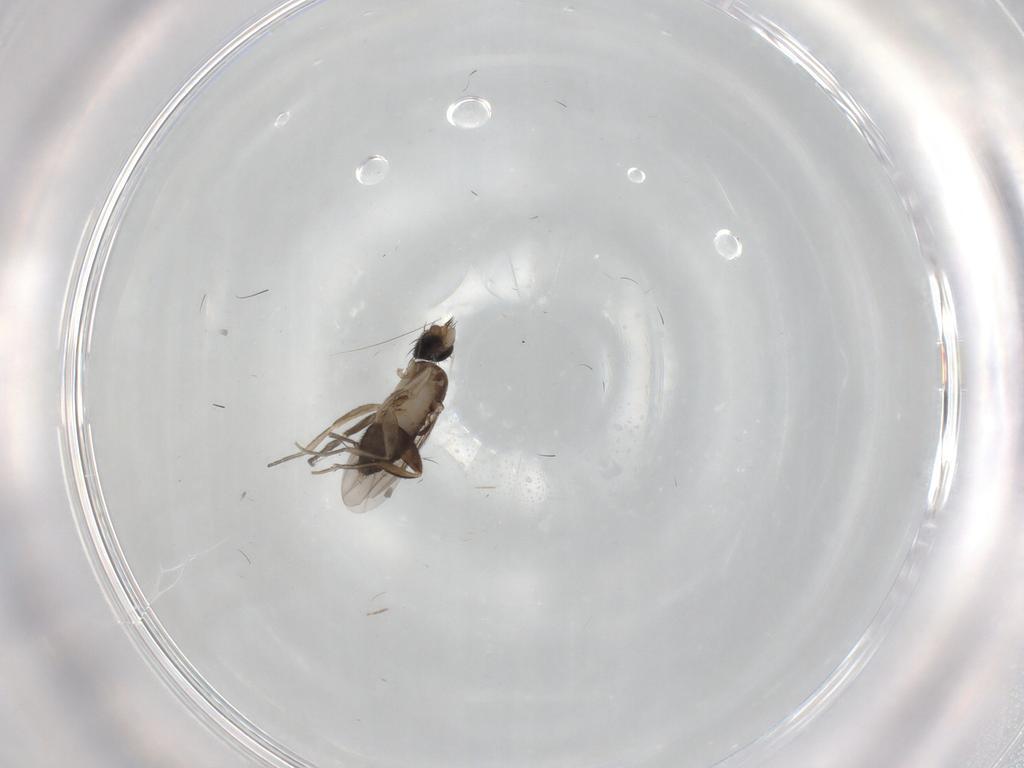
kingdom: Animalia
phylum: Arthropoda
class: Insecta
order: Diptera
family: Phoridae
